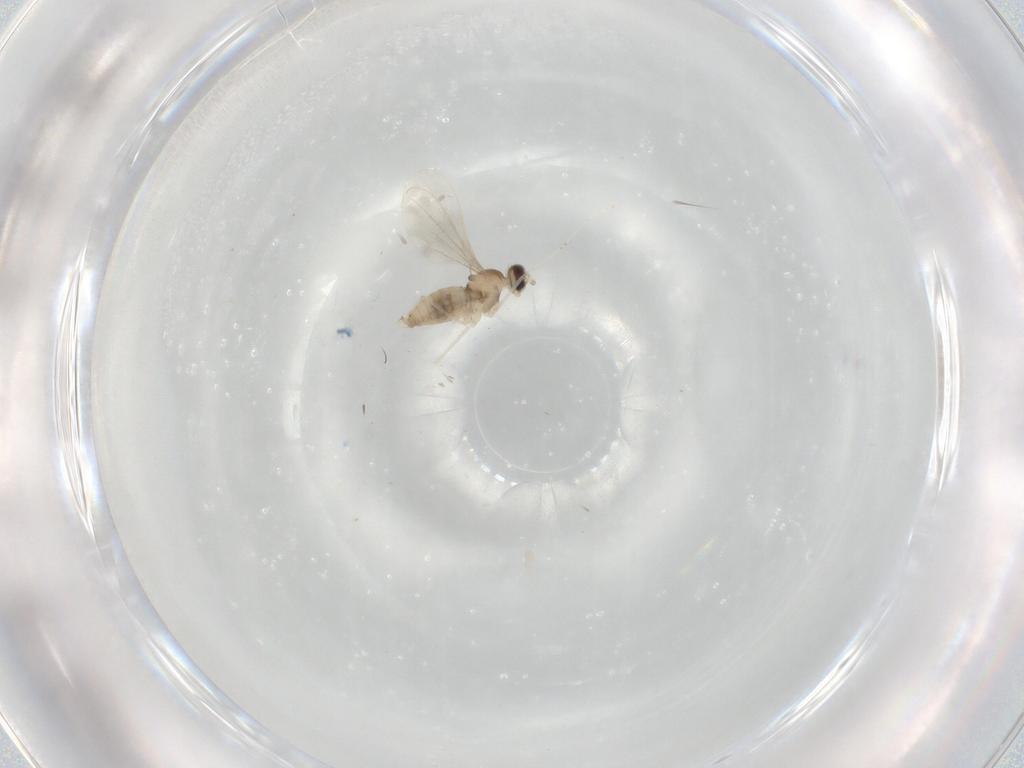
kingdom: Animalia
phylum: Arthropoda
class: Insecta
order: Diptera
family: Cecidomyiidae
